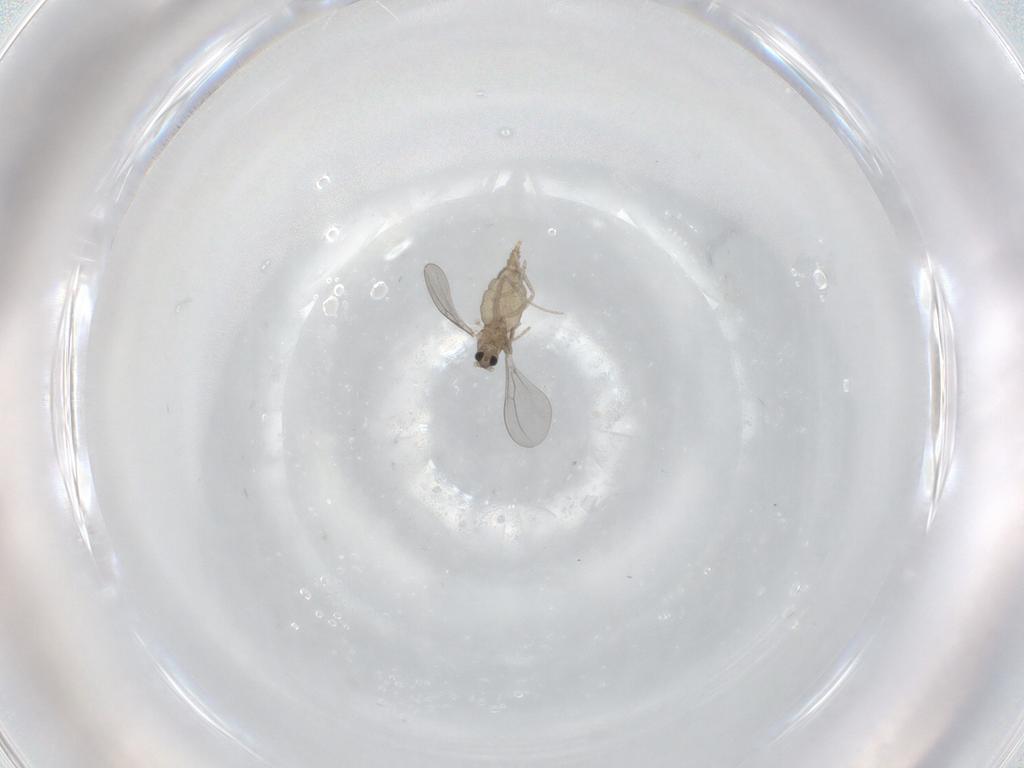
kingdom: Animalia
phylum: Arthropoda
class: Insecta
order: Diptera
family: Cecidomyiidae
